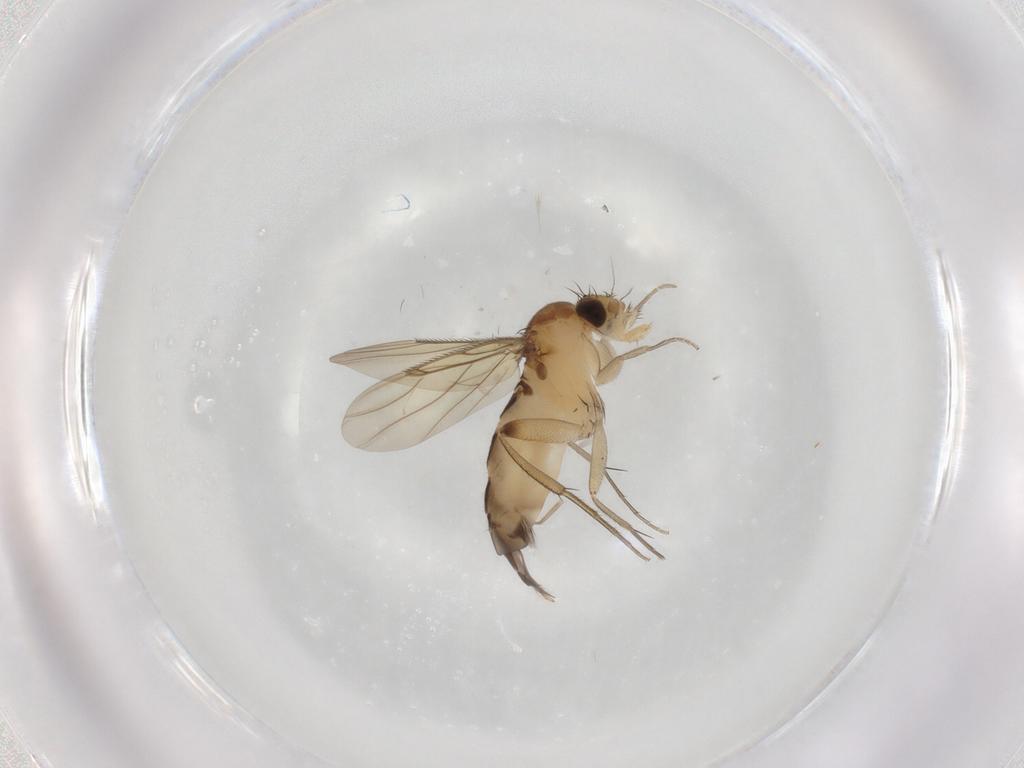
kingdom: Animalia
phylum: Arthropoda
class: Insecta
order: Diptera
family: Phoridae
